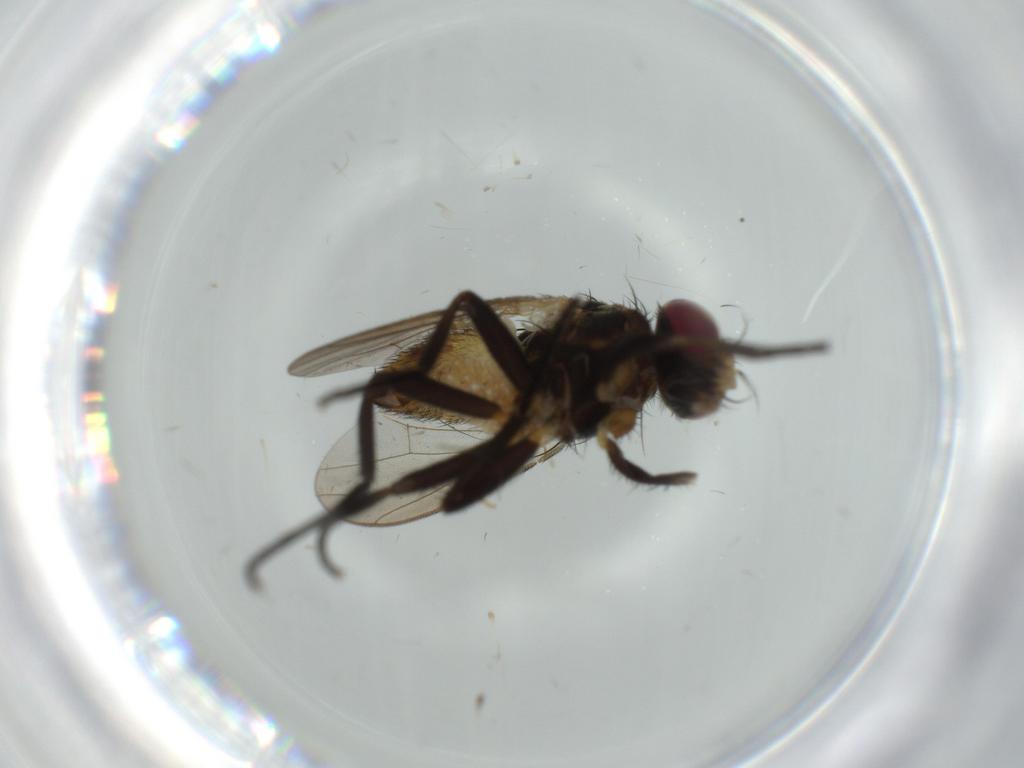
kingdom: Animalia
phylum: Arthropoda
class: Insecta
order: Diptera
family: Anthomyiidae
